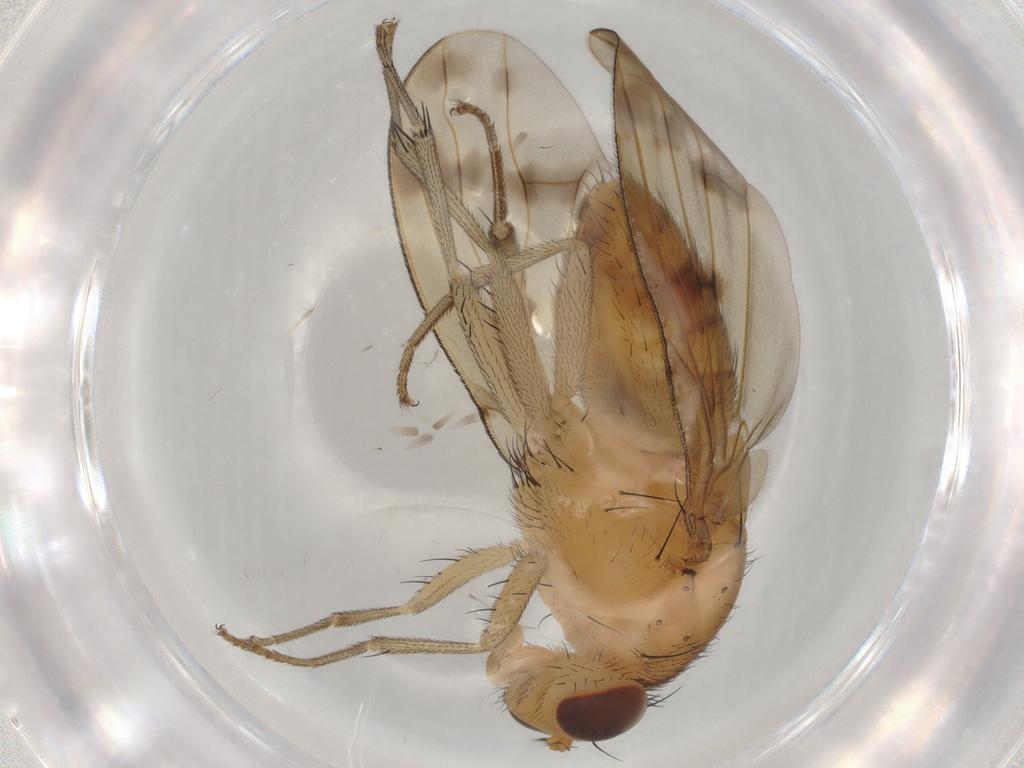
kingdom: Animalia
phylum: Arthropoda
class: Insecta
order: Diptera
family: Lauxaniidae
